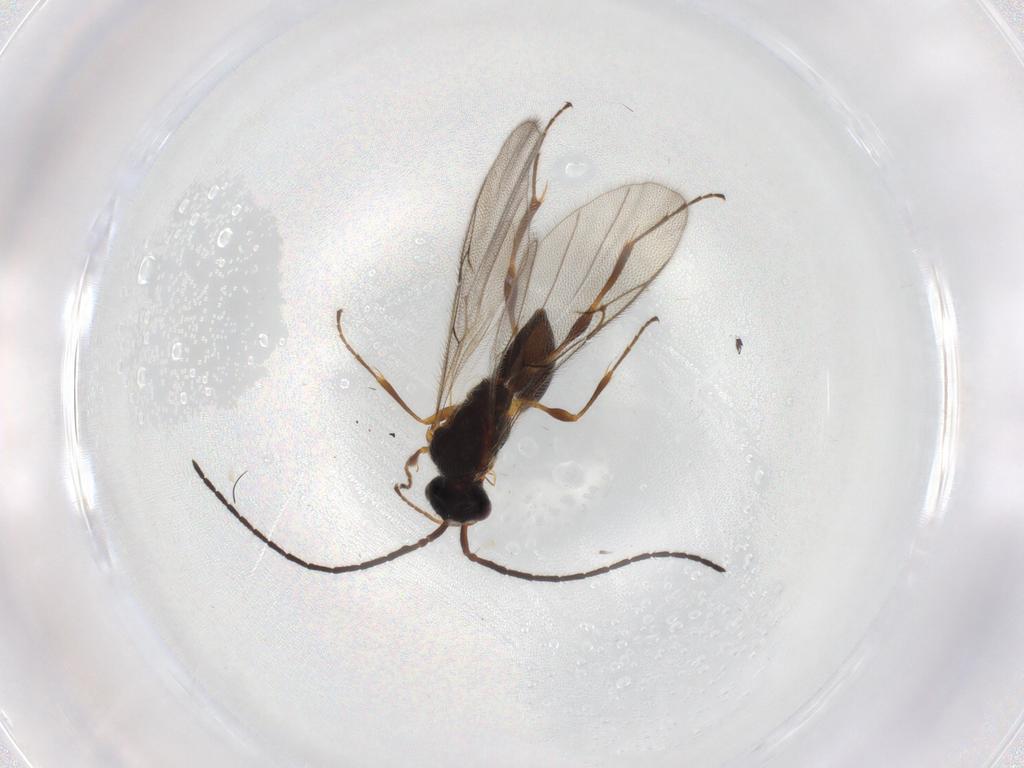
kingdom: Animalia
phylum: Arthropoda
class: Insecta
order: Hymenoptera
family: Diapriidae
